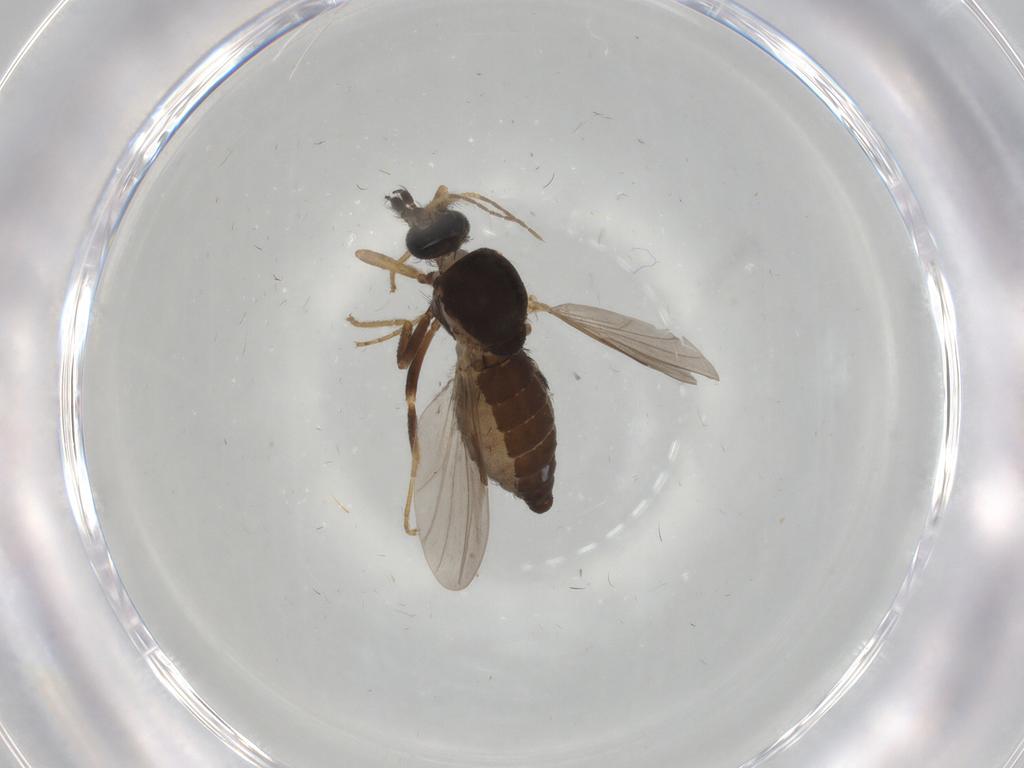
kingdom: Animalia
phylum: Arthropoda
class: Insecta
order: Diptera
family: Ceratopogonidae
